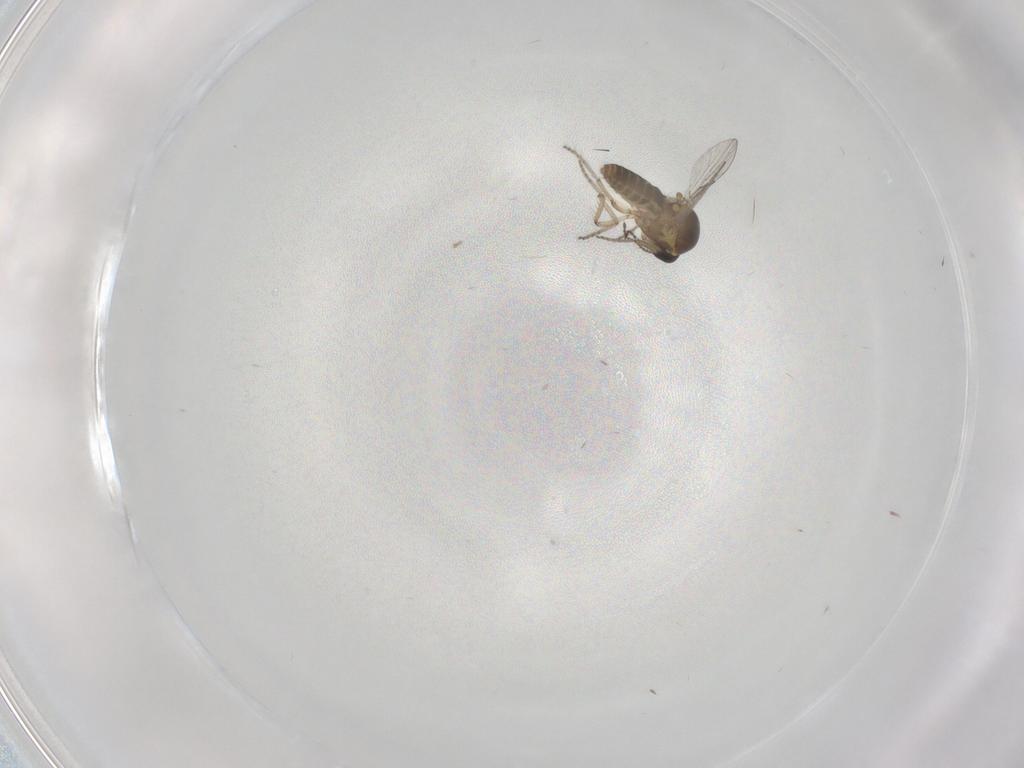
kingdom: Animalia
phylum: Arthropoda
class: Insecta
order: Diptera
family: Ceratopogonidae
